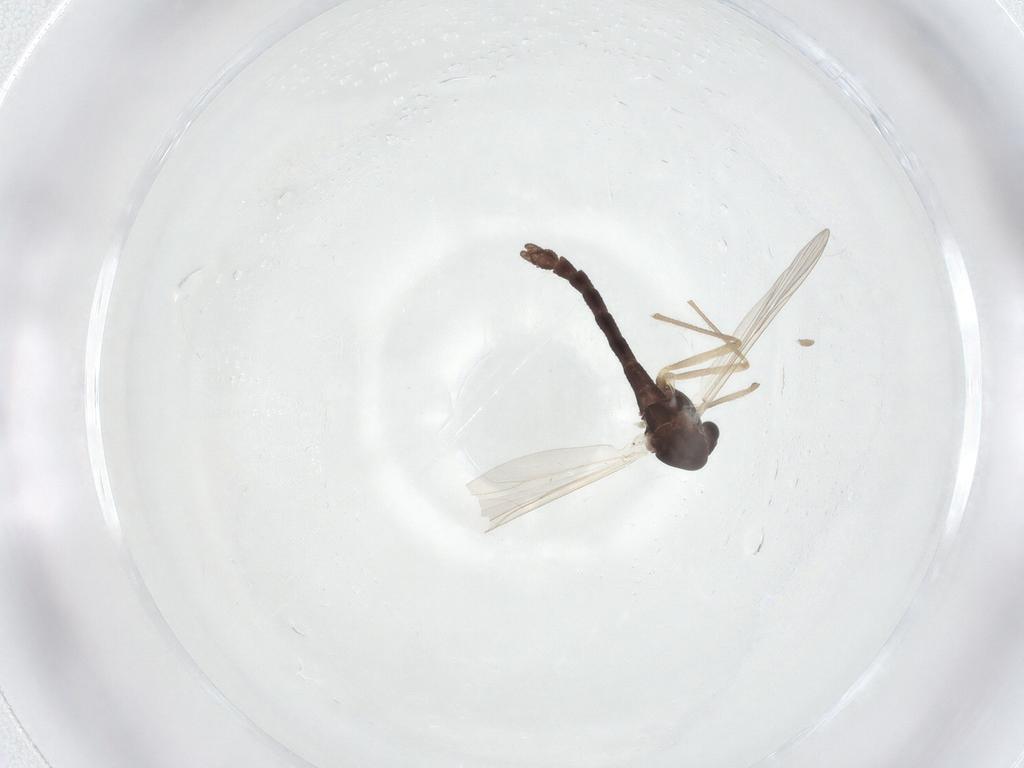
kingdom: Animalia
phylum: Arthropoda
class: Insecta
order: Diptera
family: Chironomidae
